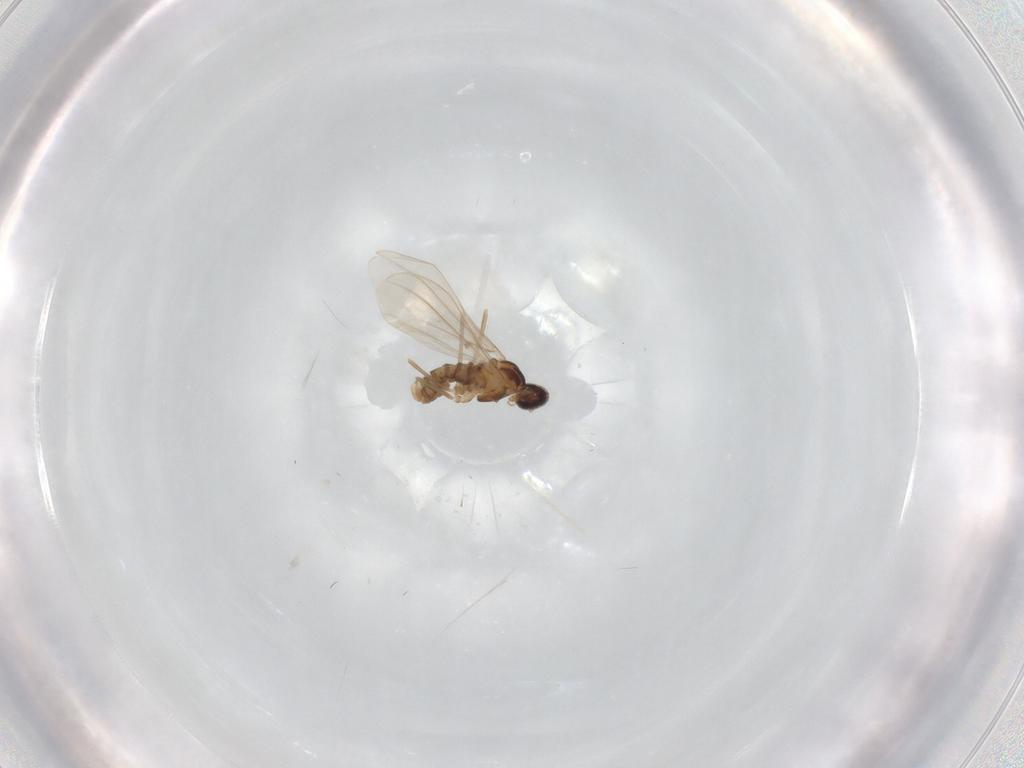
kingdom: Animalia
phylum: Arthropoda
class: Insecta
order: Diptera
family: Cecidomyiidae
